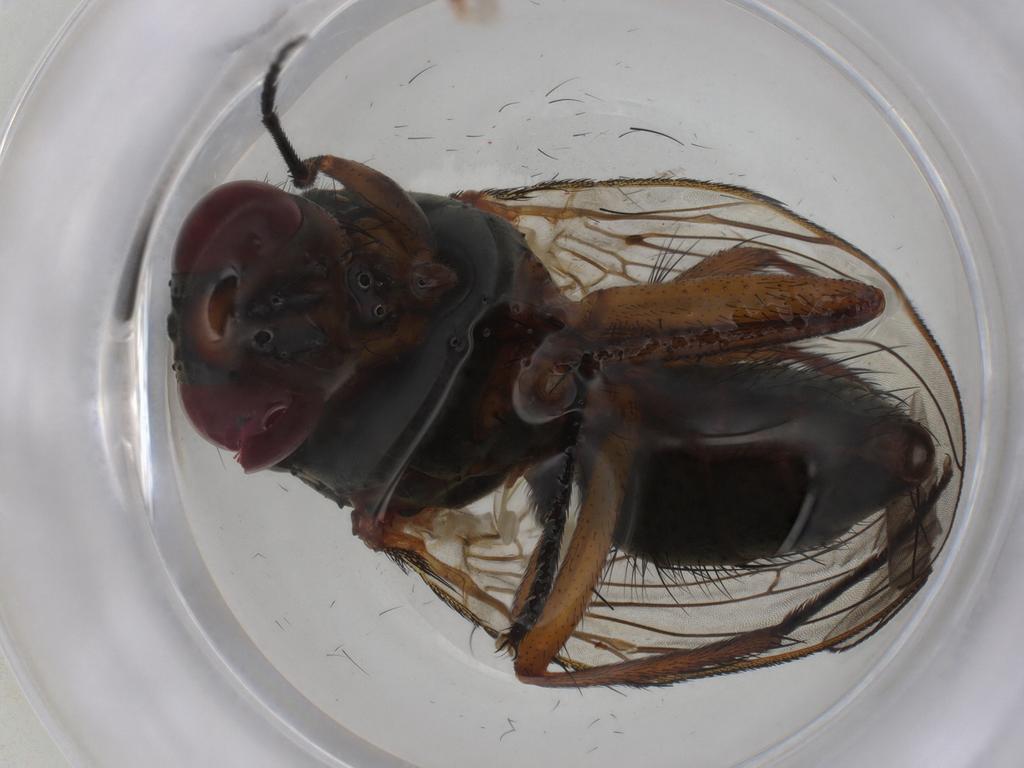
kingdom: Animalia
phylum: Arthropoda
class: Insecta
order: Diptera
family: Anthomyiidae
